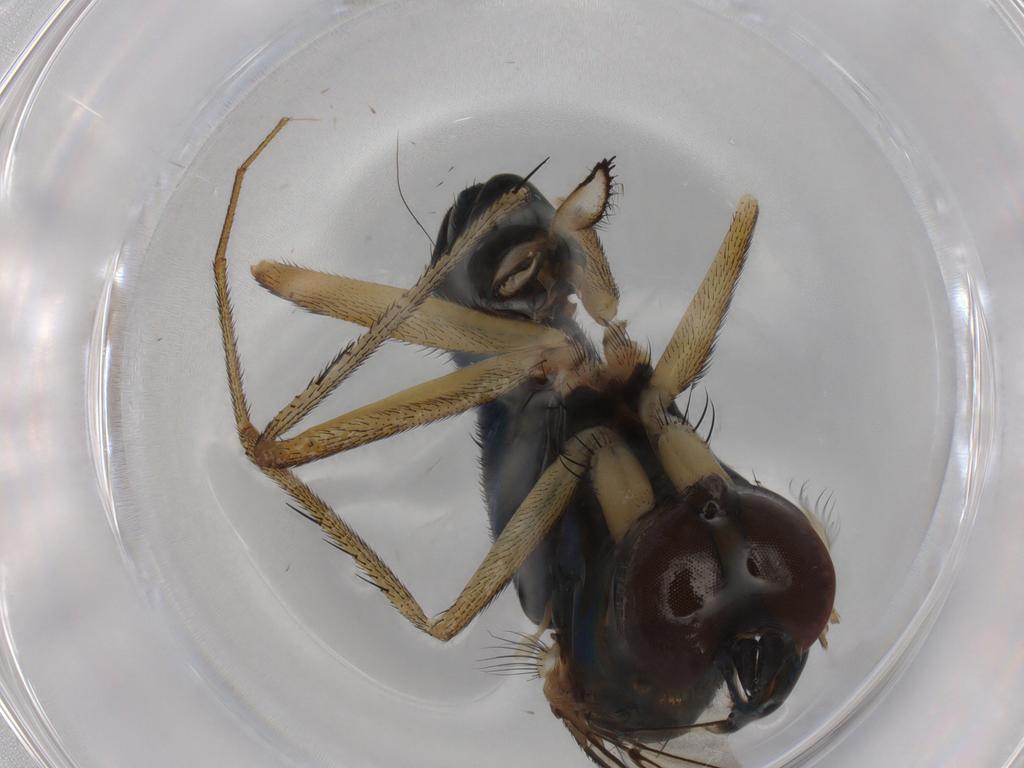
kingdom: Animalia
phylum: Arthropoda
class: Insecta
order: Diptera
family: Dolichopodidae
